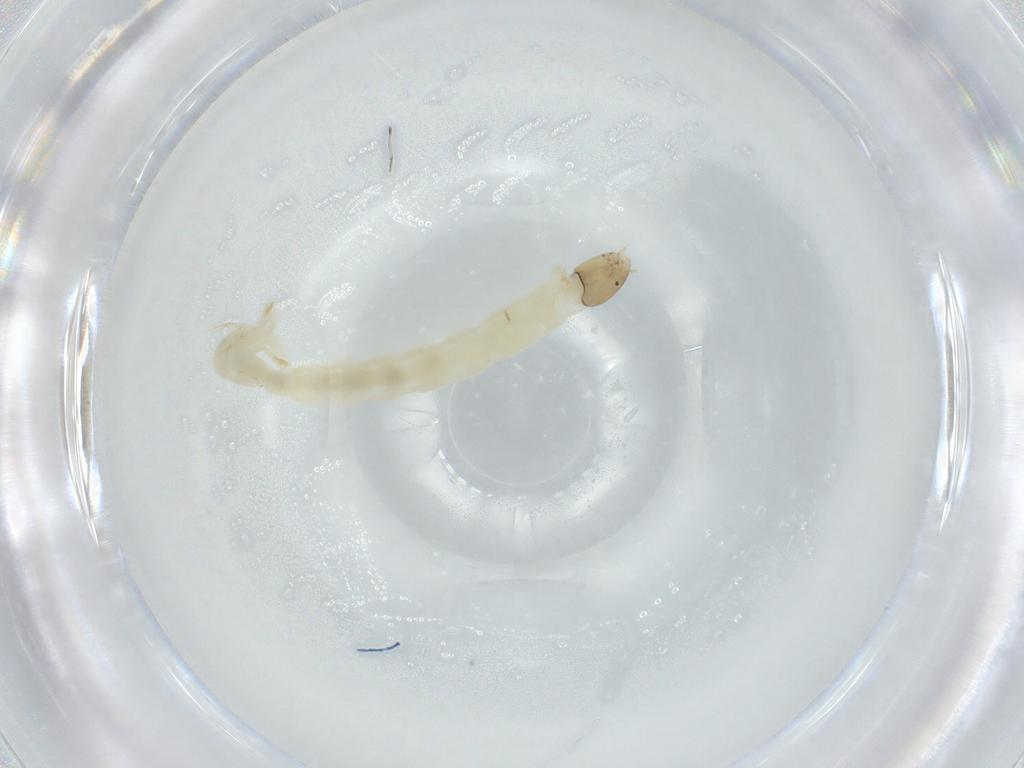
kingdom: Animalia
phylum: Arthropoda
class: Insecta
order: Diptera
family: Chironomidae
